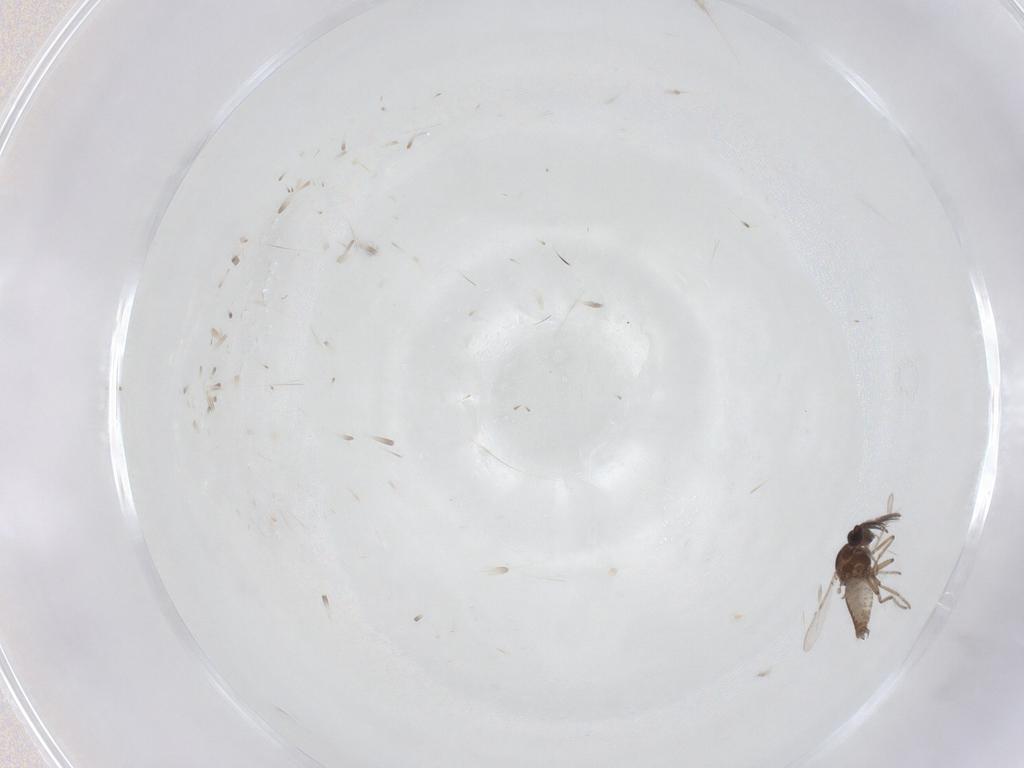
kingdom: Animalia
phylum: Arthropoda
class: Insecta
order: Diptera
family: Ceratopogonidae
